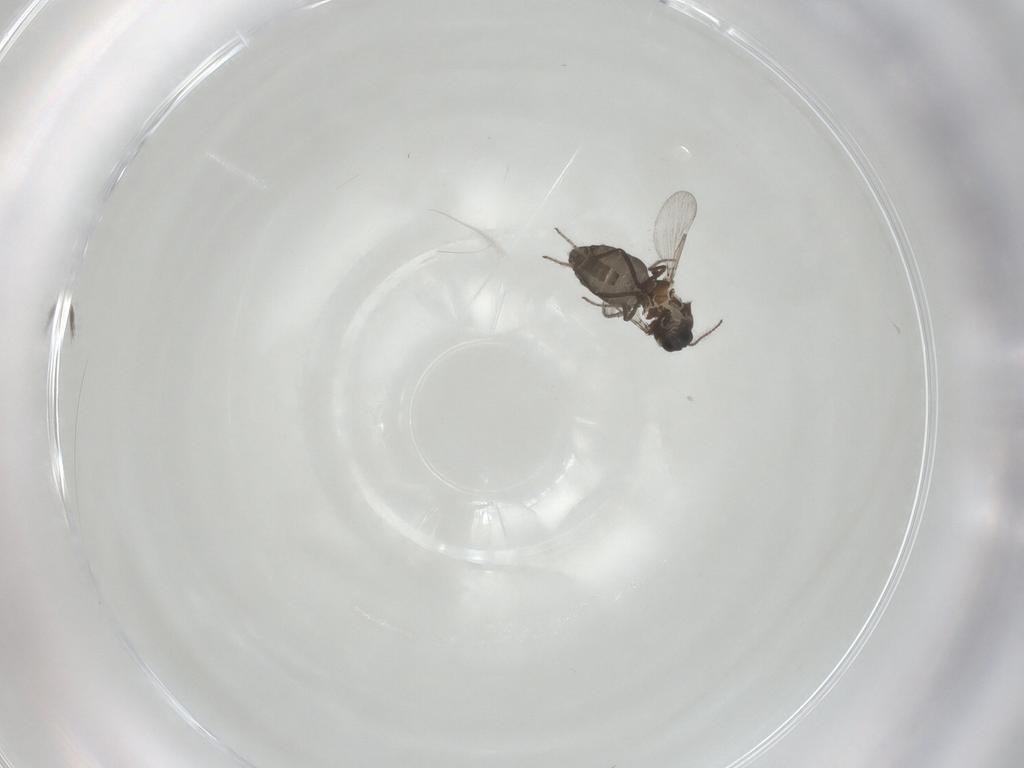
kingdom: Animalia
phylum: Arthropoda
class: Insecta
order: Diptera
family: Ceratopogonidae
